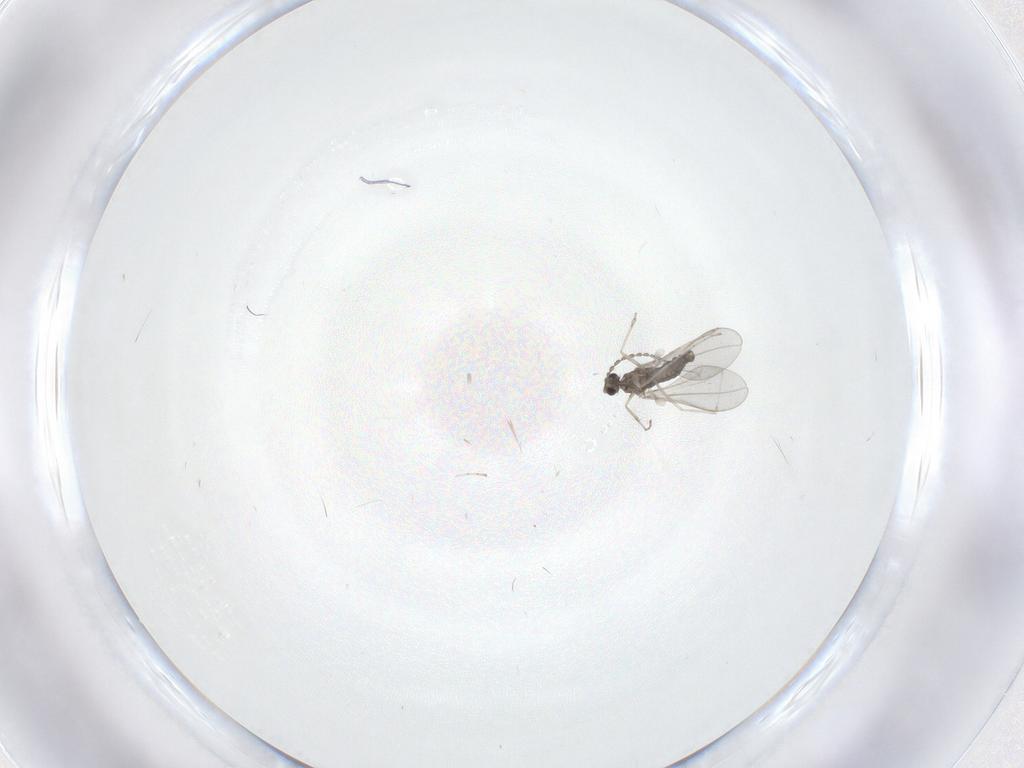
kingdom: Animalia
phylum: Arthropoda
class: Insecta
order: Diptera
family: Cecidomyiidae
